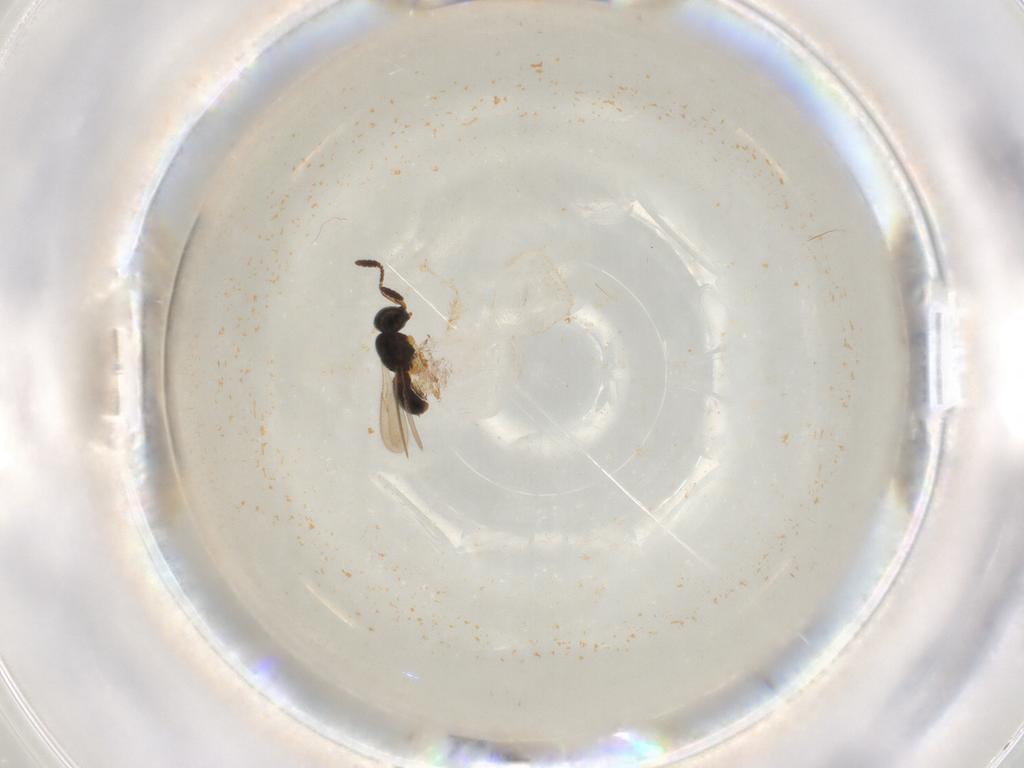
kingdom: Animalia
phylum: Arthropoda
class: Insecta
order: Hymenoptera
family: Scelionidae
